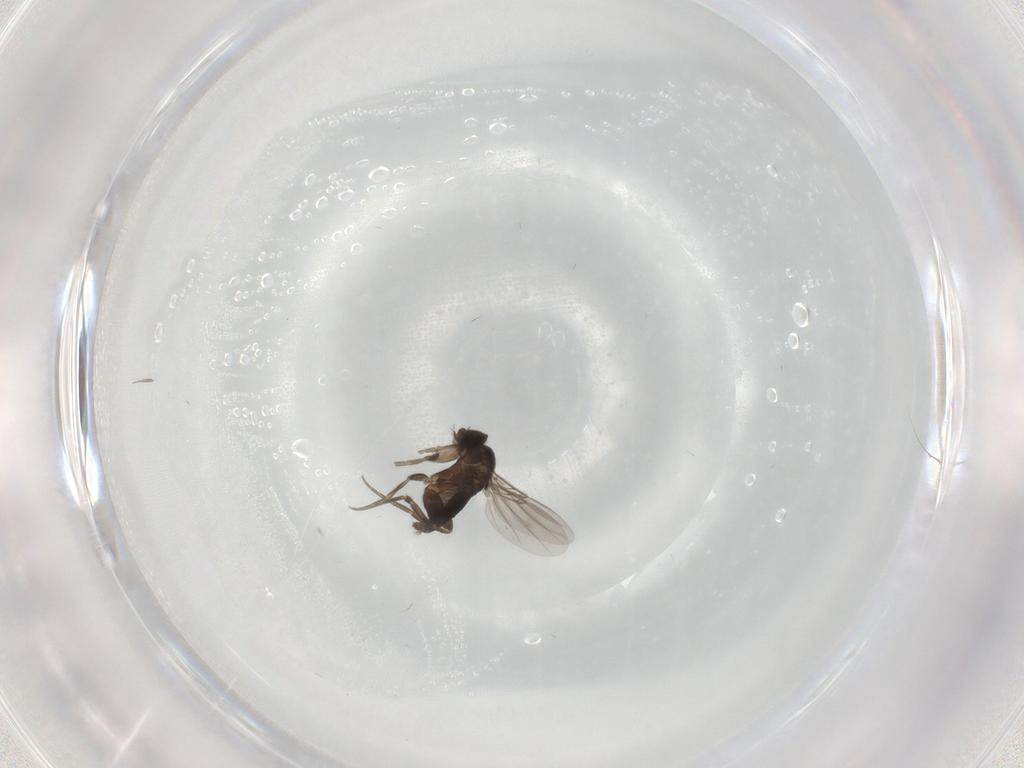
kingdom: Animalia
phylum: Arthropoda
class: Insecta
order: Diptera
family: Phoridae
